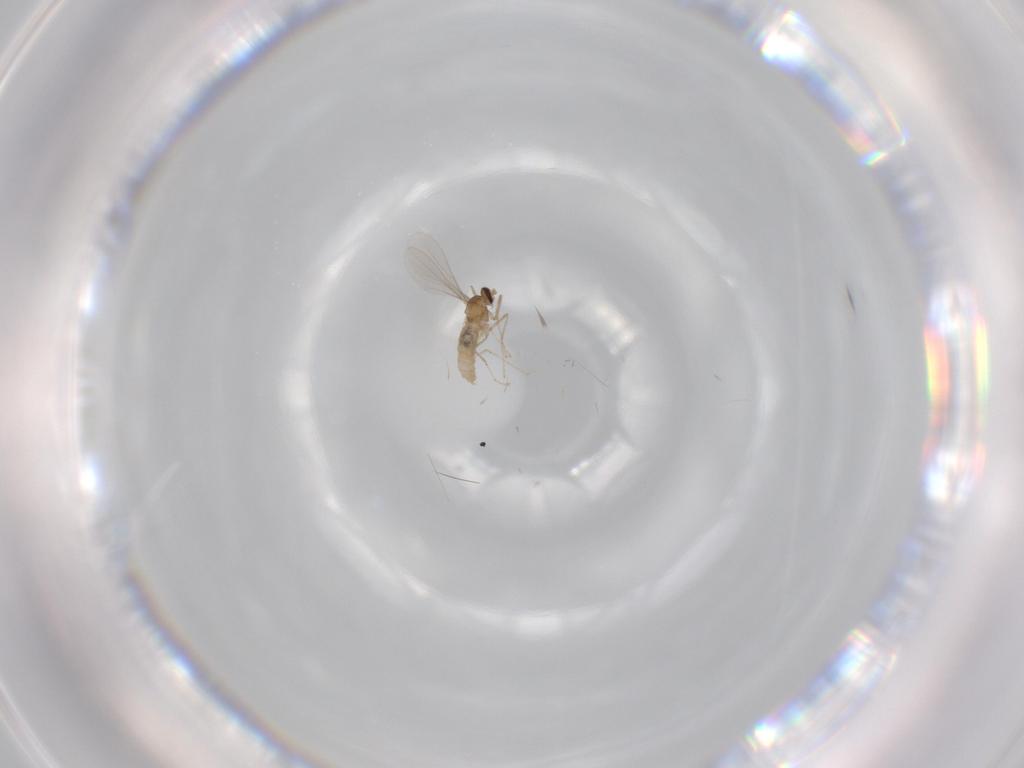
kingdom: Animalia
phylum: Arthropoda
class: Insecta
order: Diptera
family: Cecidomyiidae
